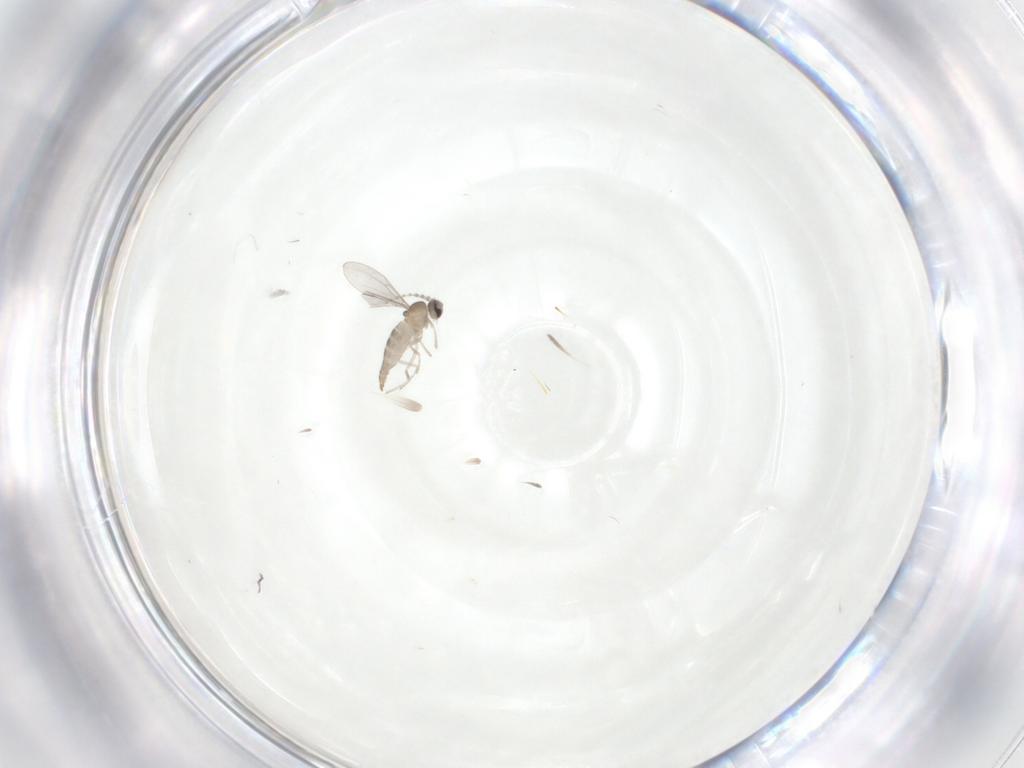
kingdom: Animalia
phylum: Arthropoda
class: Insecta
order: Diptera
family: Cecidomyiidae
